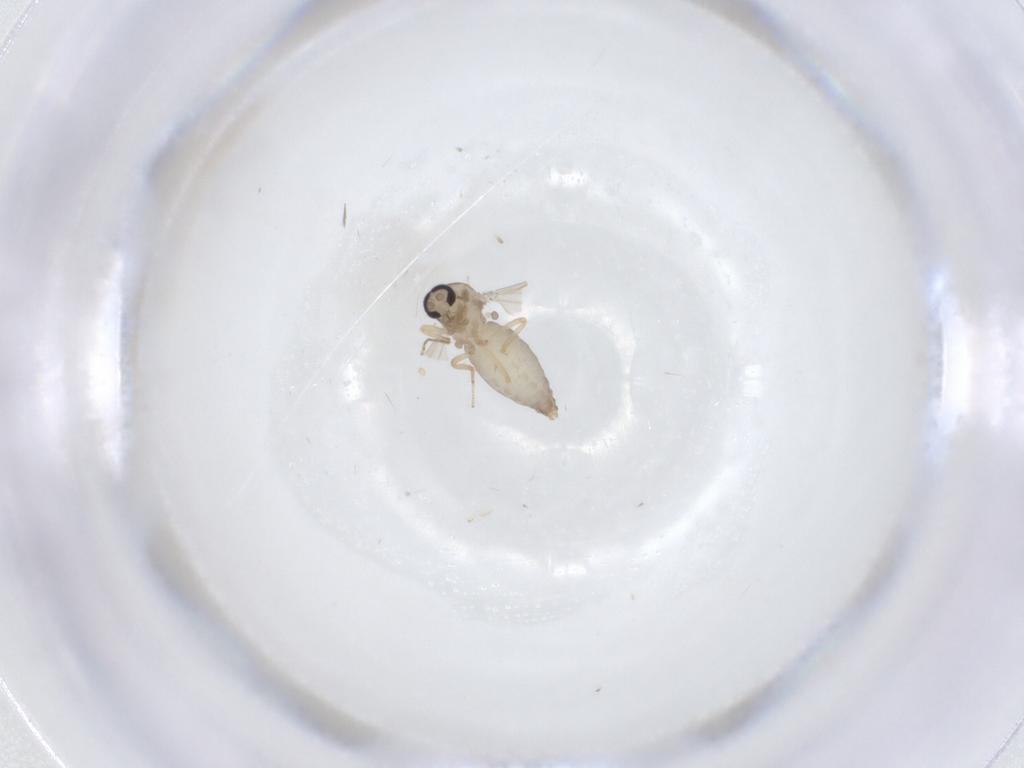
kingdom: Animalia
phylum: Arthropoda
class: Insecta
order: Diptera
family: Ceratopogonidae
